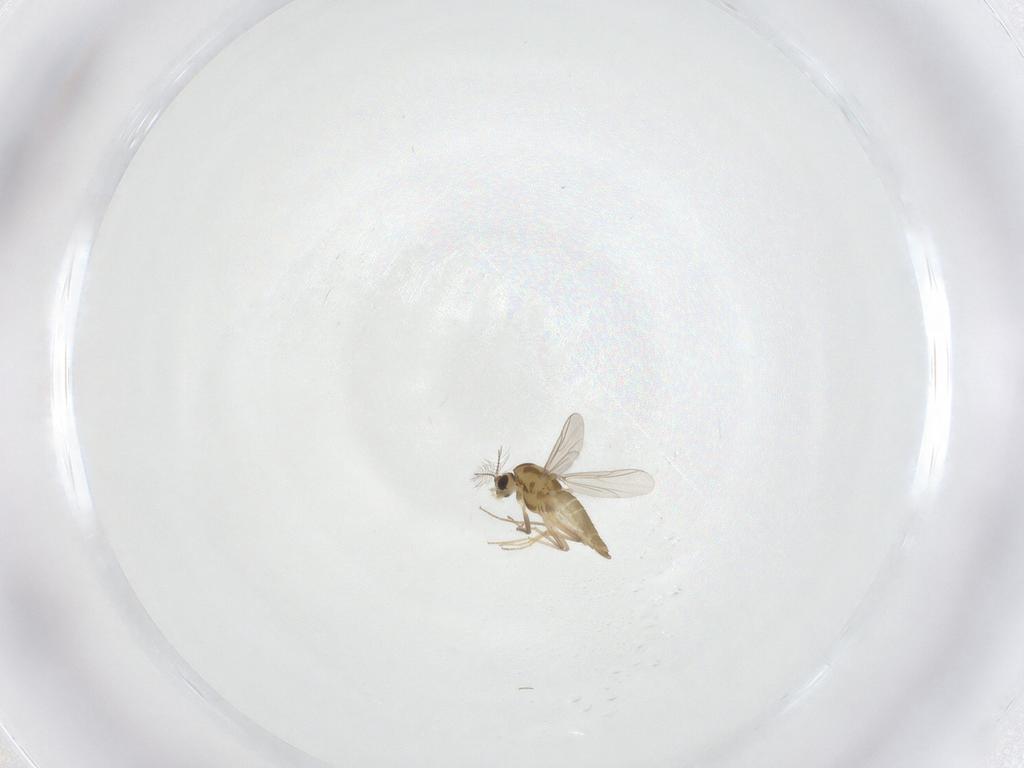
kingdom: Animalia
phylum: Arthropoda
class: Insecta
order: Diptera
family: Chironomidae
